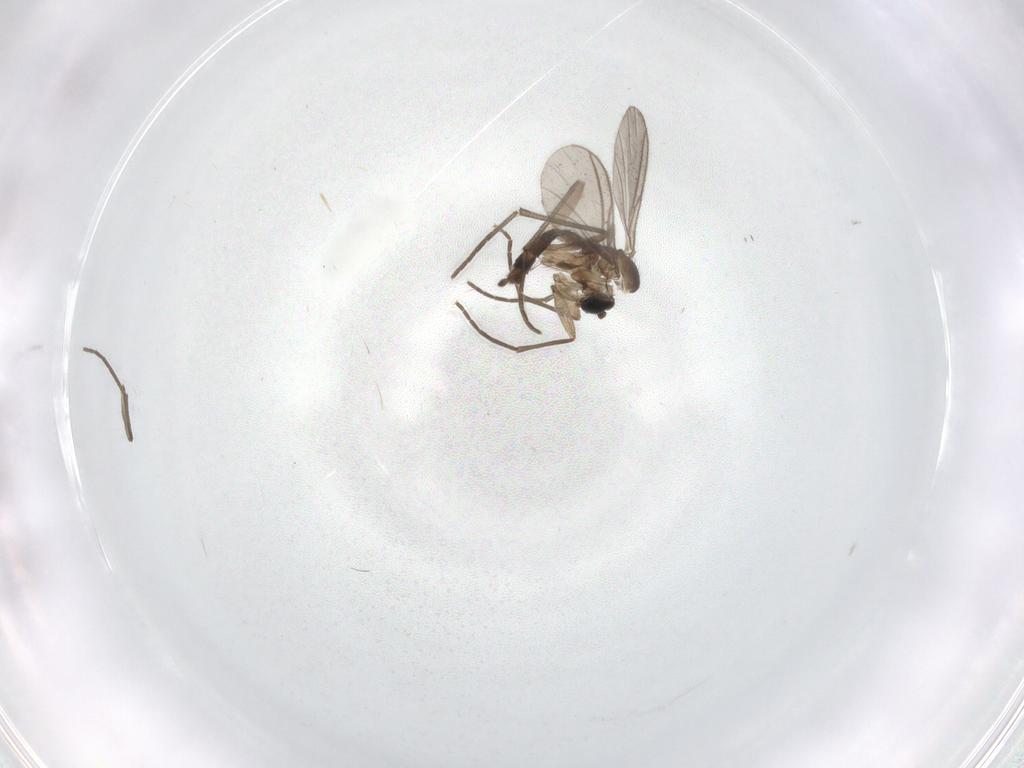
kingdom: Animalia
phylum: Arthropoda
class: Insecta
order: Diptera
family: Sciaridae
